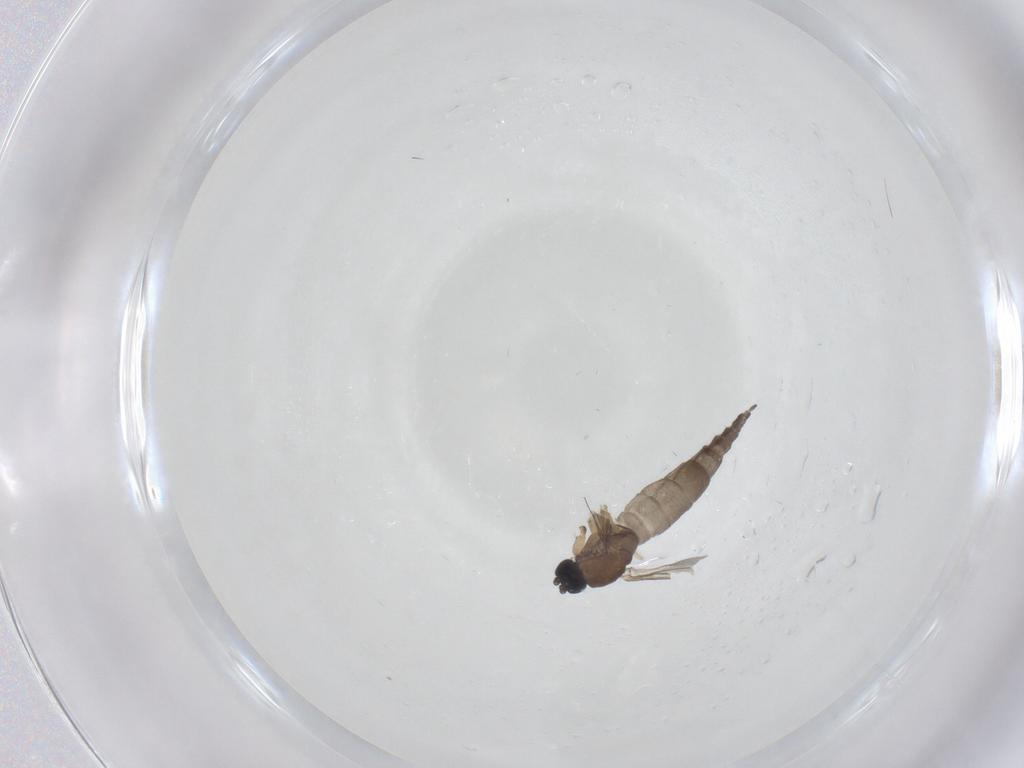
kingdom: Animalia
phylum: Arthropoda
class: Insecta
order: Diptera
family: Sciaridae
